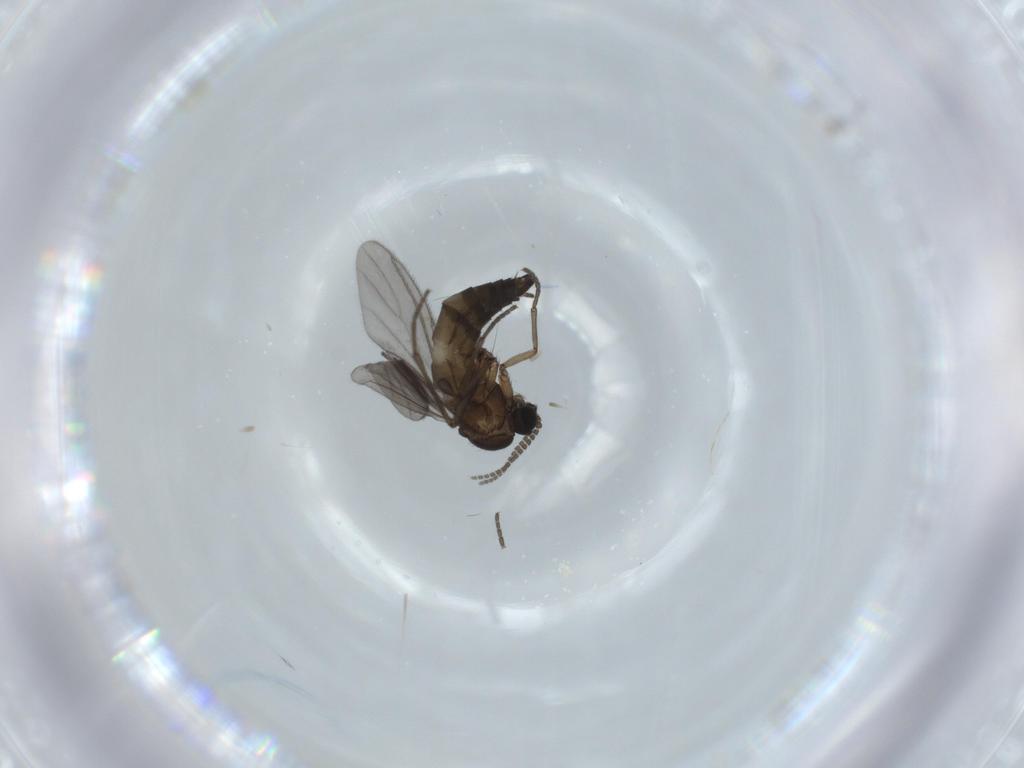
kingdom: Animalia
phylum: Arthropoda
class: Insecta
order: Diptera
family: Sciaridae
